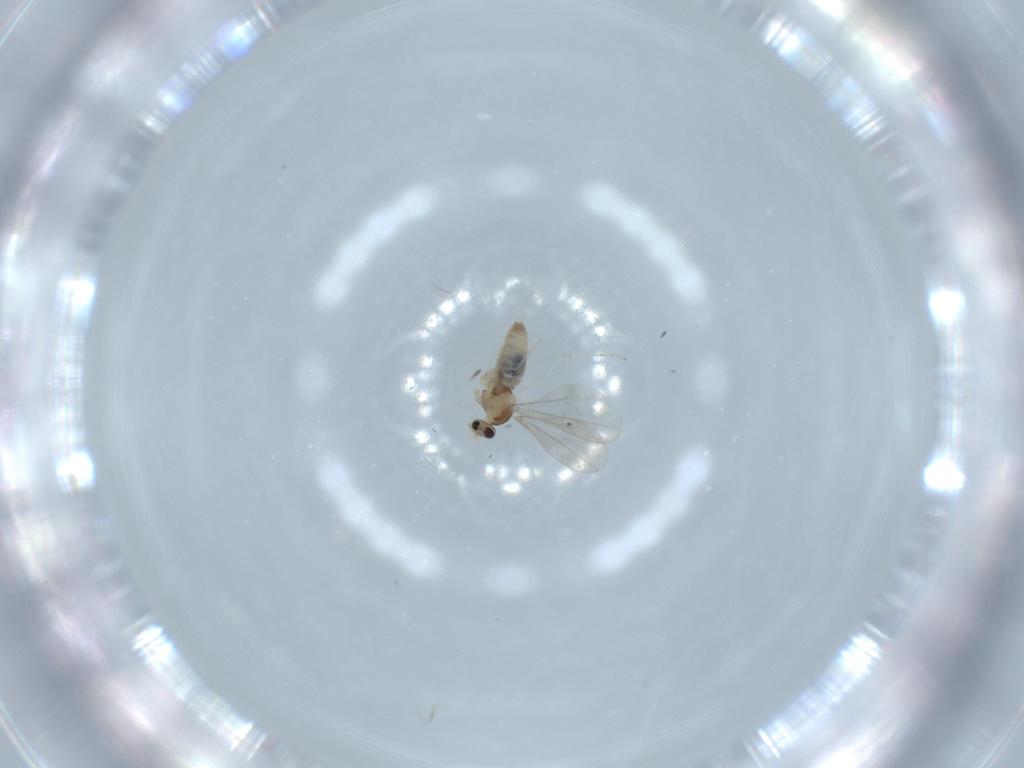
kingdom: Animalia
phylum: Arthropoda
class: Insecta
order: Diptera
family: Cecidomyiidae
